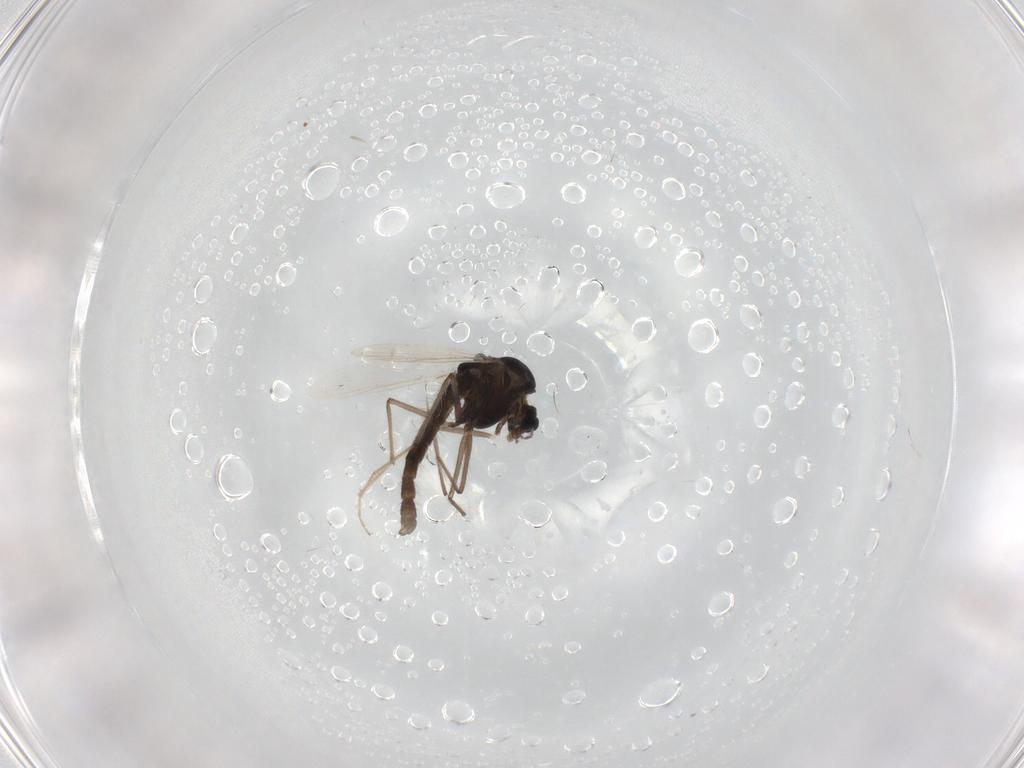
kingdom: Animalia
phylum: Arthropoda
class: Insecta
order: Diptera
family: Chironomidae
